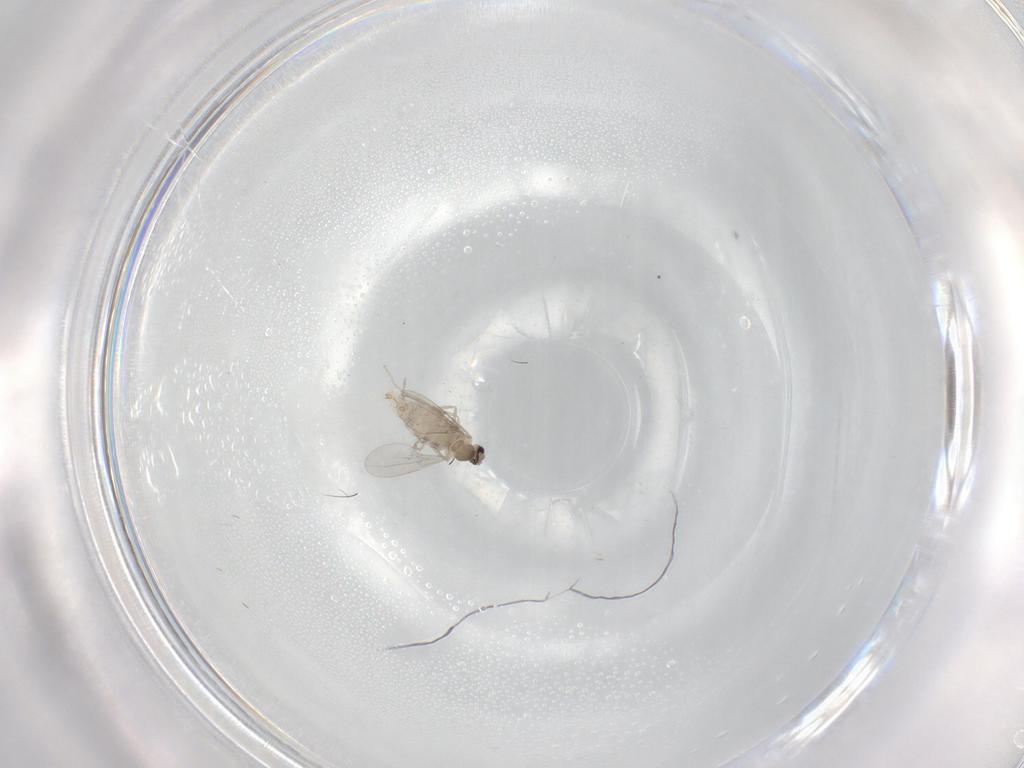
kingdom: Animalia
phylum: Arthropoda
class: Insecta
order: Diptera
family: Cecidomyiidae
